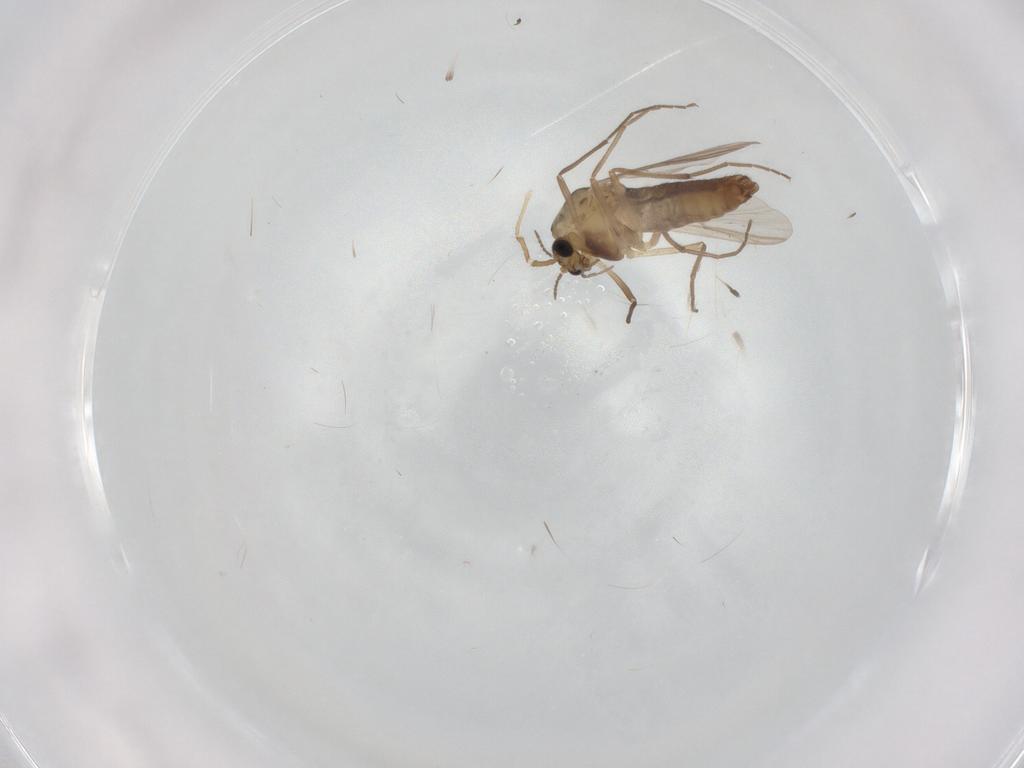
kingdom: Animalia
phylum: Arthropoda
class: Insecta
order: Diptera
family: Chironomidae
